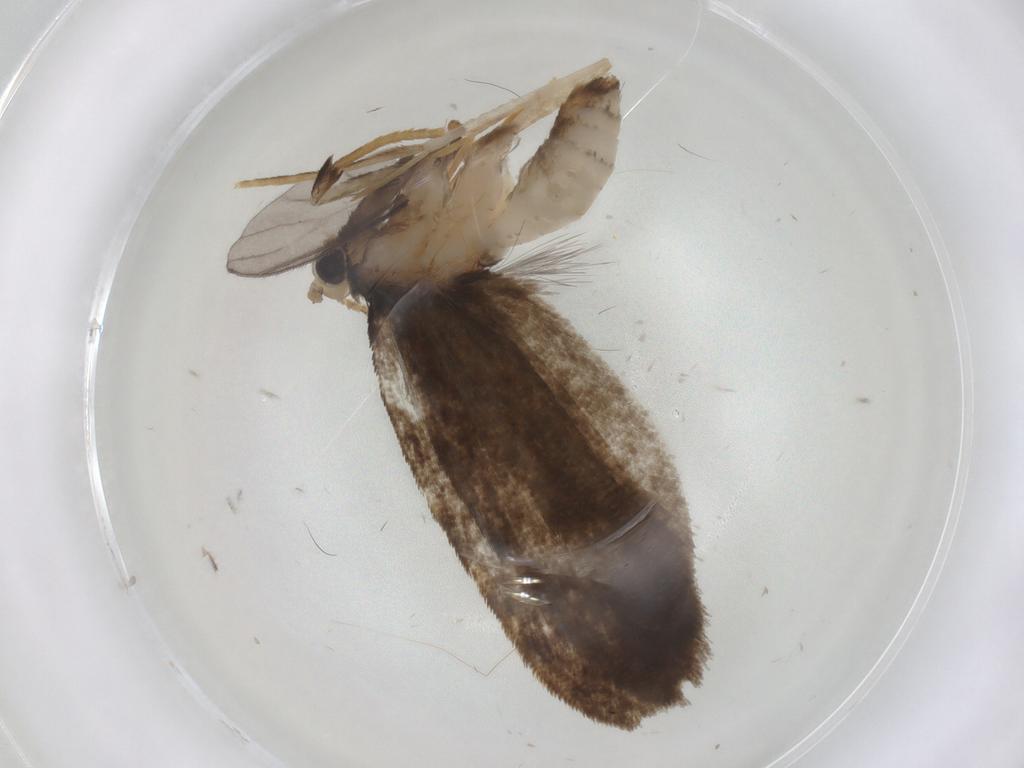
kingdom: Animalia
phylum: Arthropoda
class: Insecta
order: Lepidoptera
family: Psychidae
